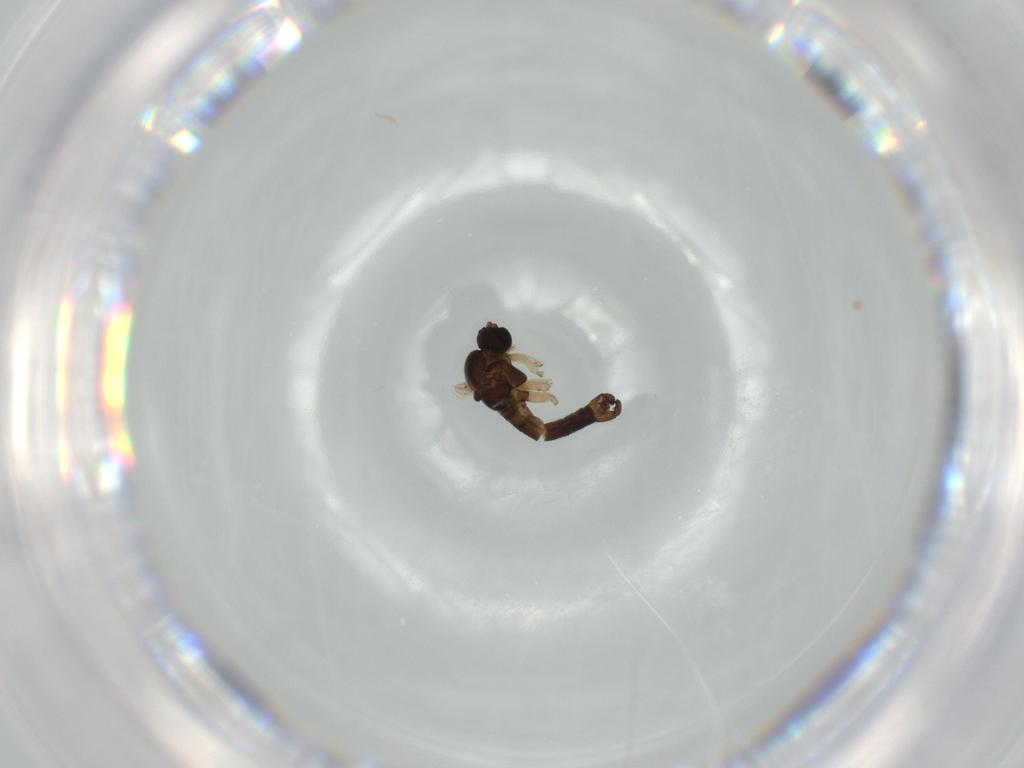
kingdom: Animalia
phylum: Arthropoda
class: Insecta
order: Diptera
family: Sciaridae
